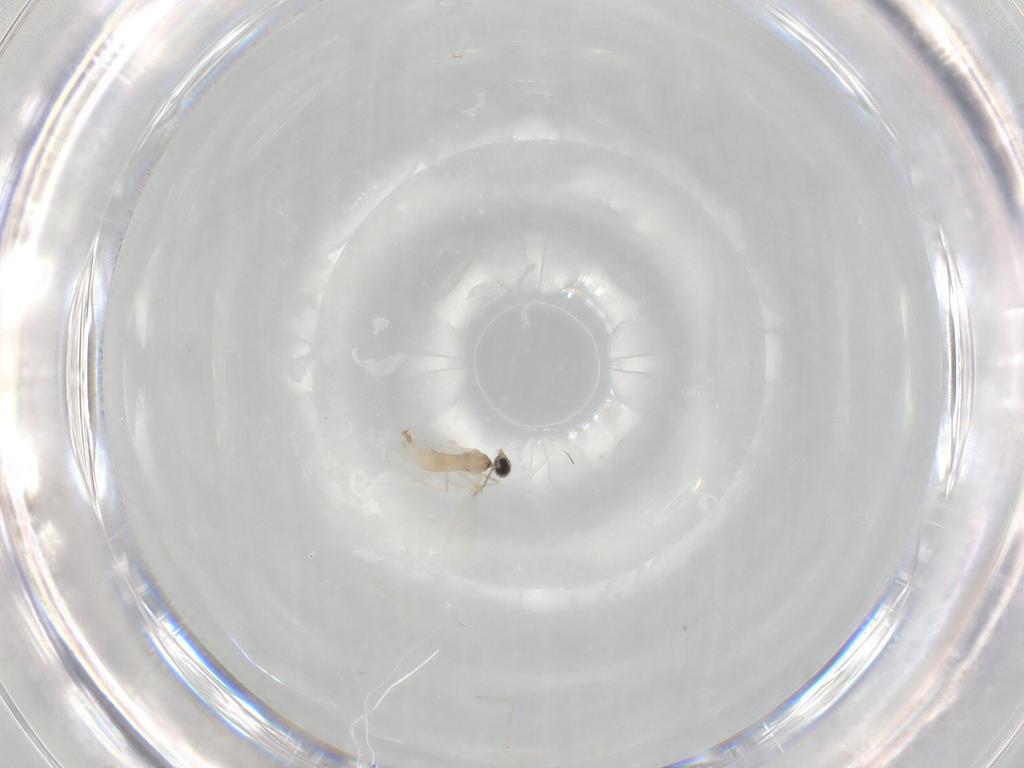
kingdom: Animalia
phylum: Arthropoda
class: Insecta
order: Diptera
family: Cecidomyiidae
